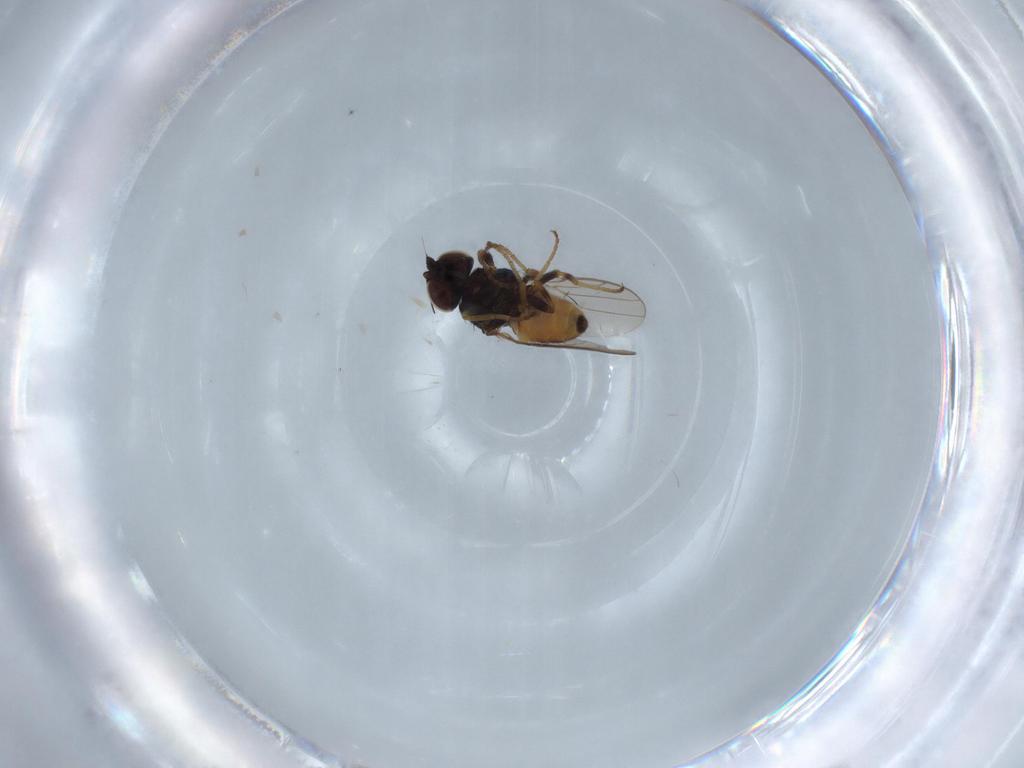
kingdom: Animalia
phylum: Arthropoda
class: Insecta
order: Diptera
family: Chloropidae
